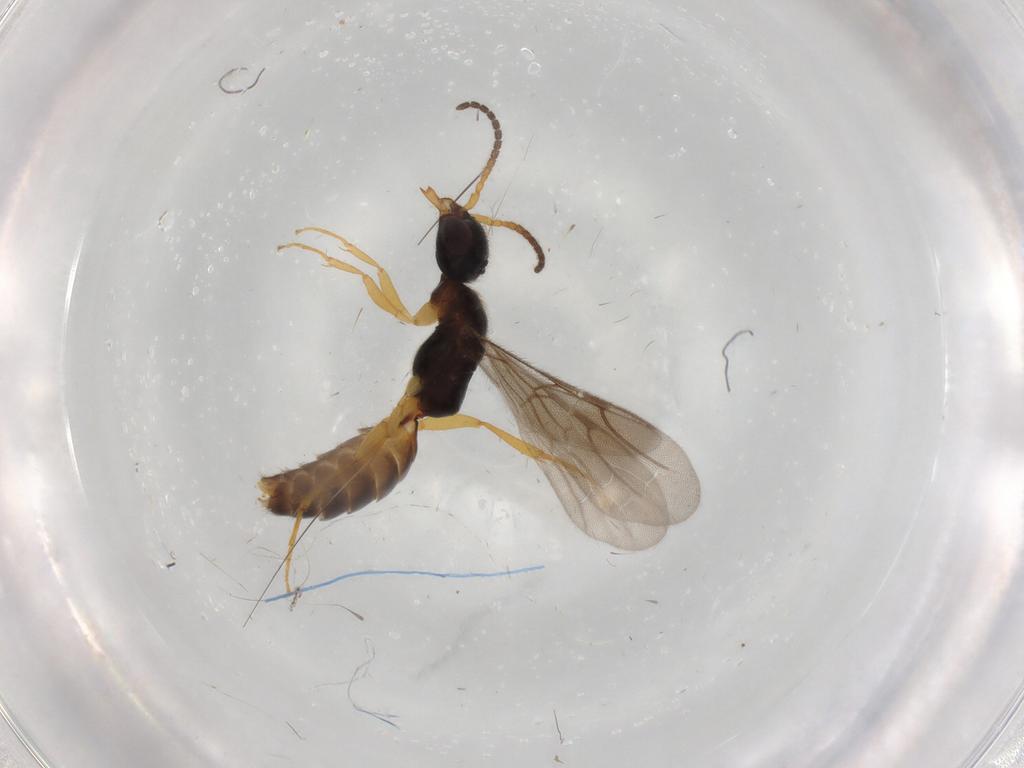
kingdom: Animalia
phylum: Arthropoda
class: Insecta
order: Hymenoptera
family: Bethylidae
